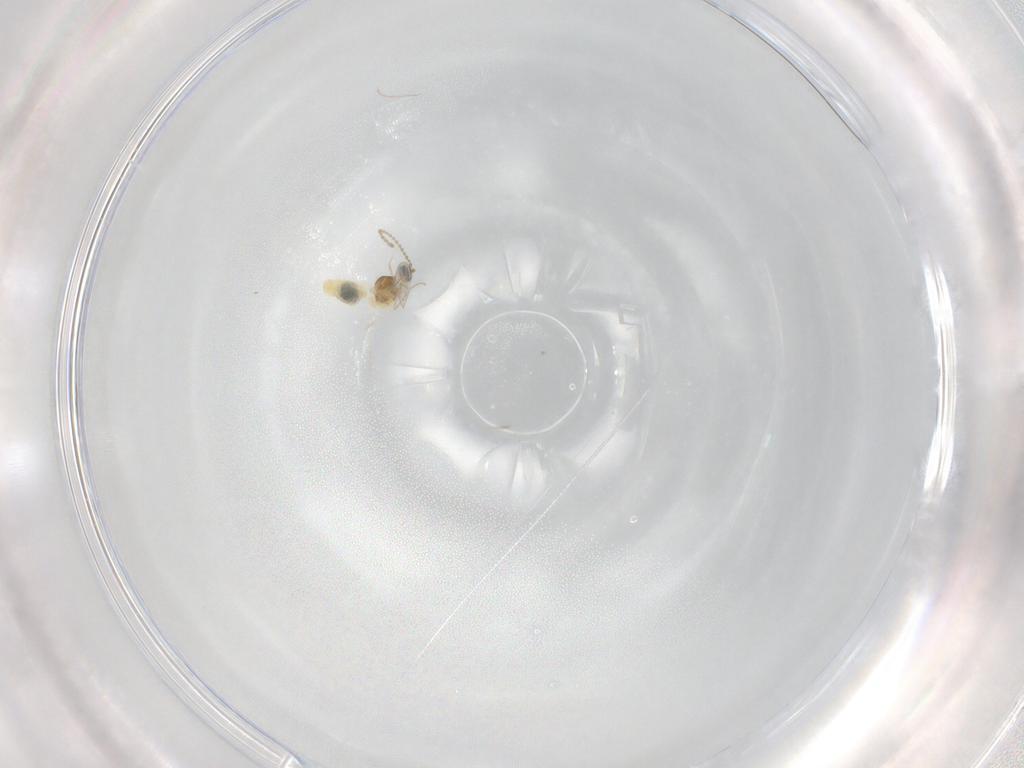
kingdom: Animalia
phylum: Arthropoda
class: Insecta
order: Diptera
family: Cecidomyiidae
